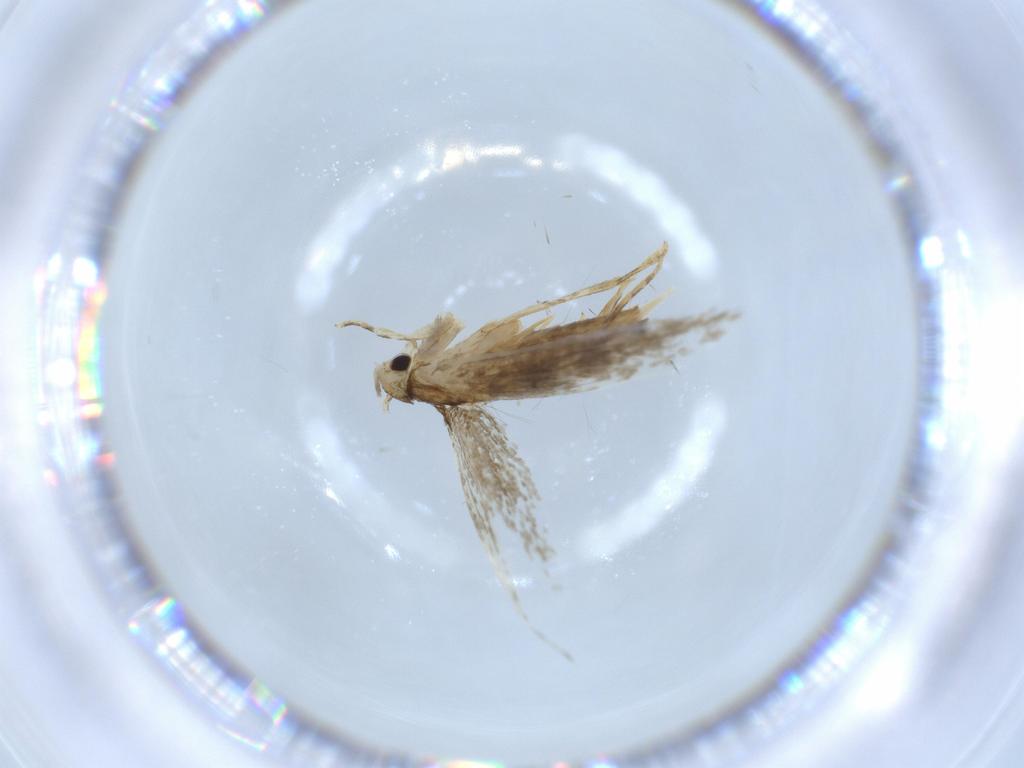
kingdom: Animalia
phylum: Arthropoda
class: Insecta
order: Lepidoptera
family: Tineidae
